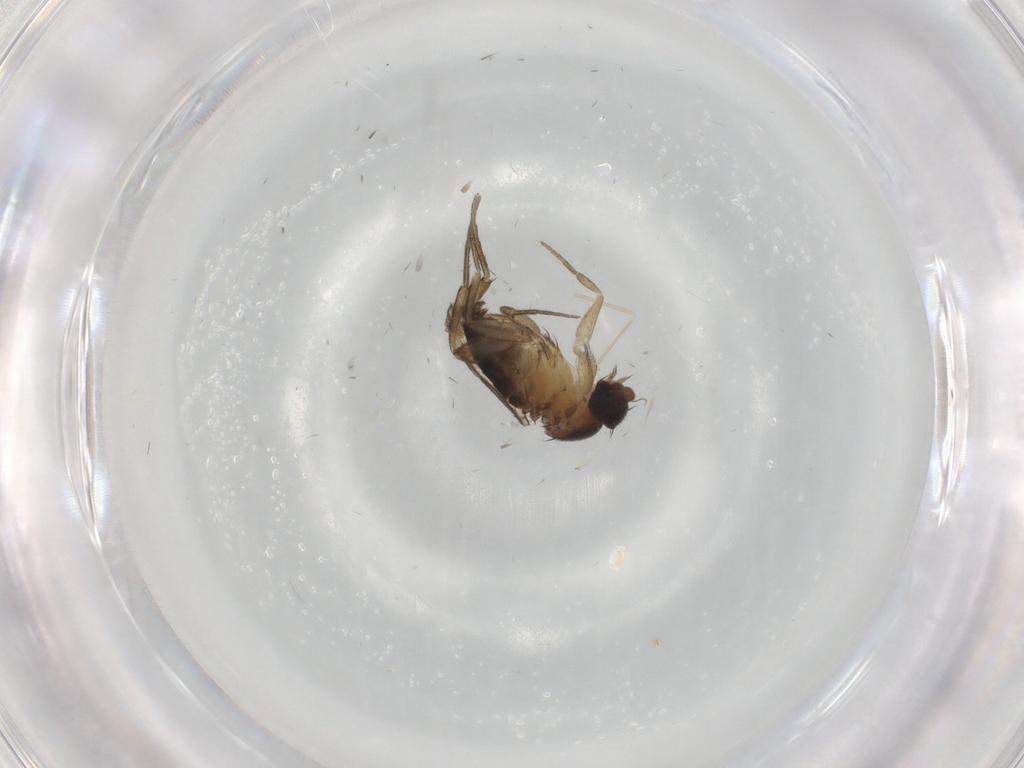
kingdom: Animalia
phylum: Arthropoda
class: Insecta
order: Diptera
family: Phoridae
